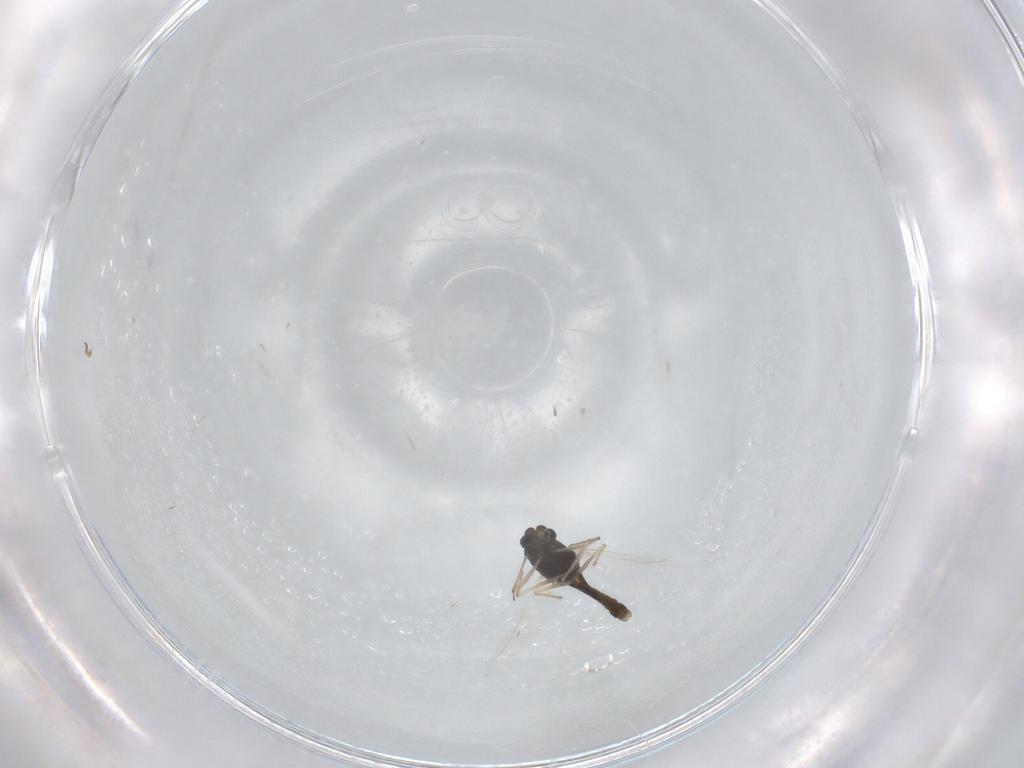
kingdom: Animalia
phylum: Arthropoda
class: Insecta
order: Diptera
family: Chironomidae
